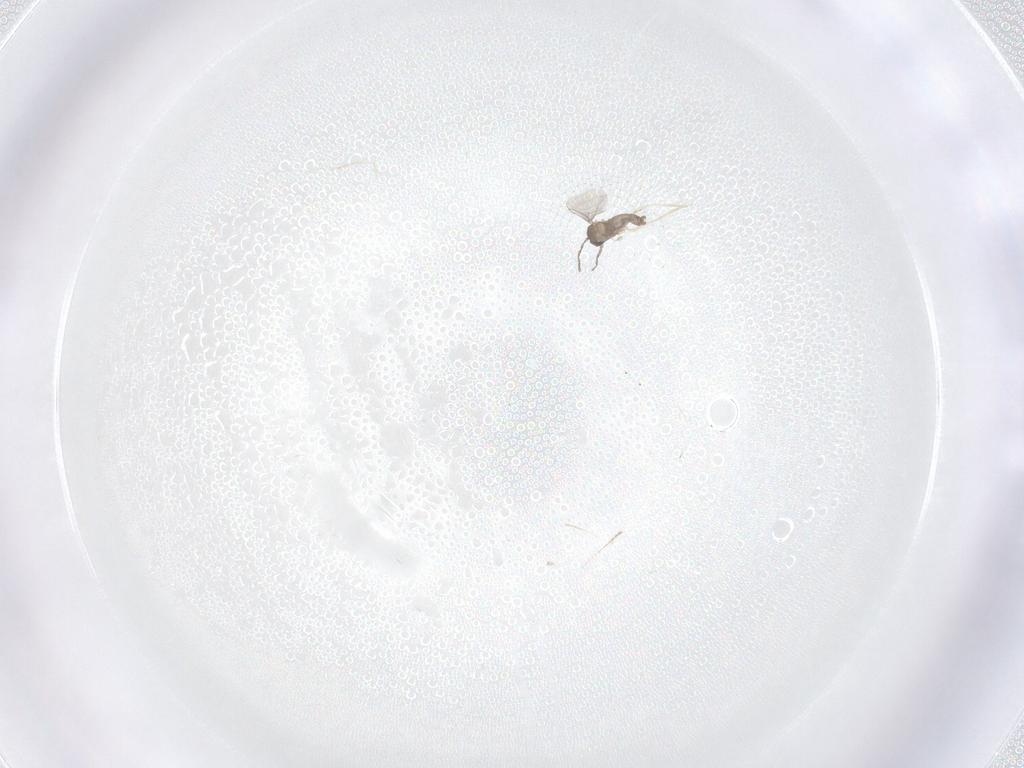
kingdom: Animalia
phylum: Arthropoda
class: Insecta
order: Diptera
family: Cecidomyiidae
